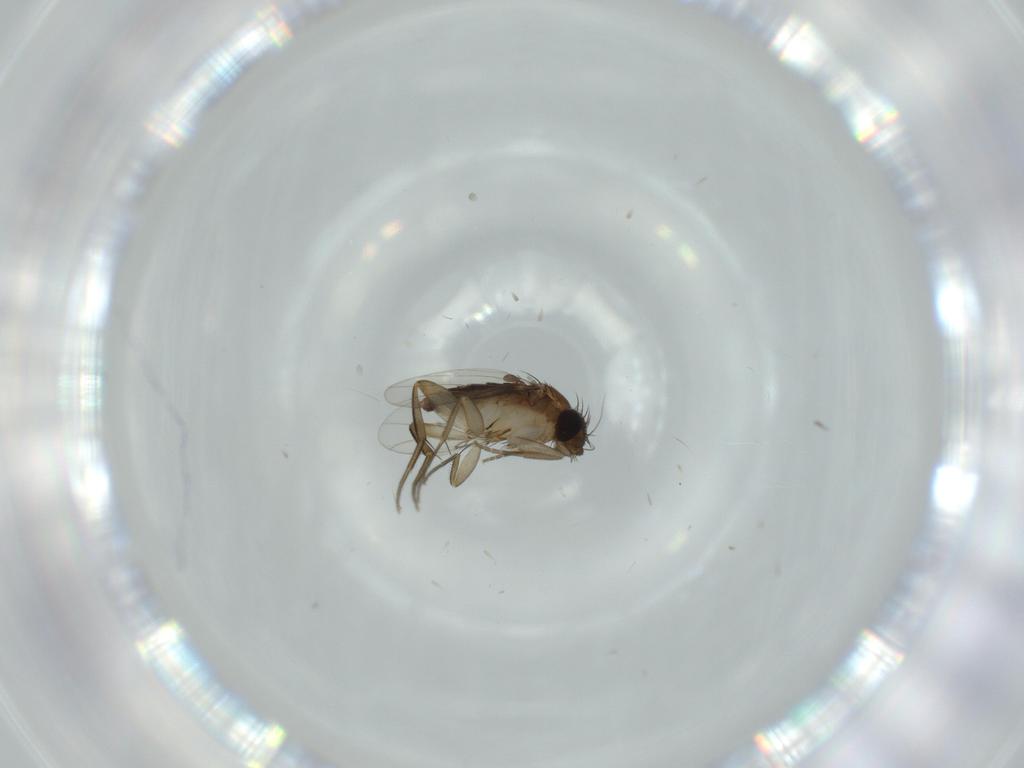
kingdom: Animalia
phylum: Arthropoda
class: Insecta
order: Diptera
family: Phoridae
